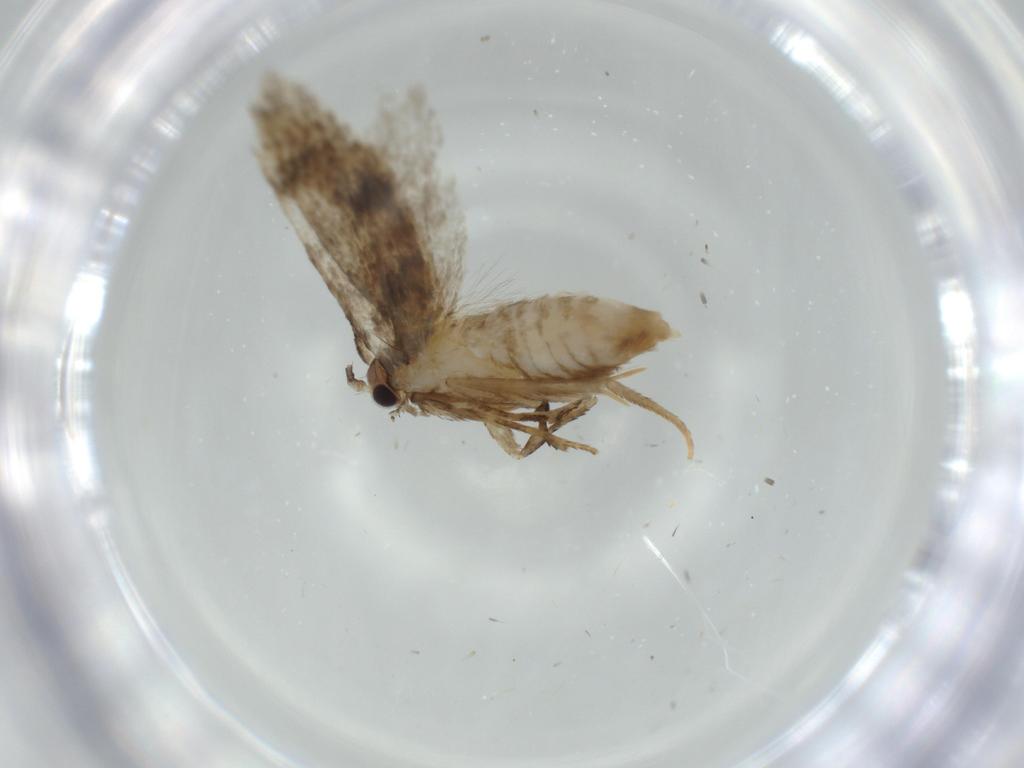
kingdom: Animalia
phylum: Arthropoda
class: Insecta
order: Lepidoptera
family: Tineidae
